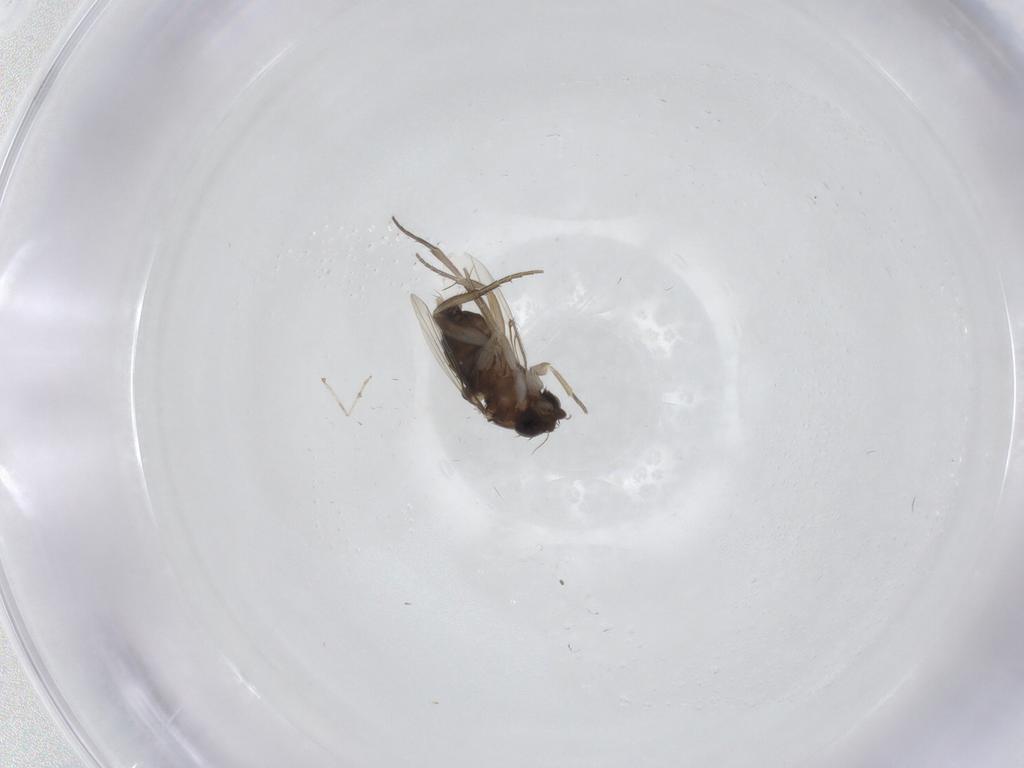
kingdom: Animalia
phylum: Arthropoda
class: Insecta
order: Diptera
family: Phoridae
